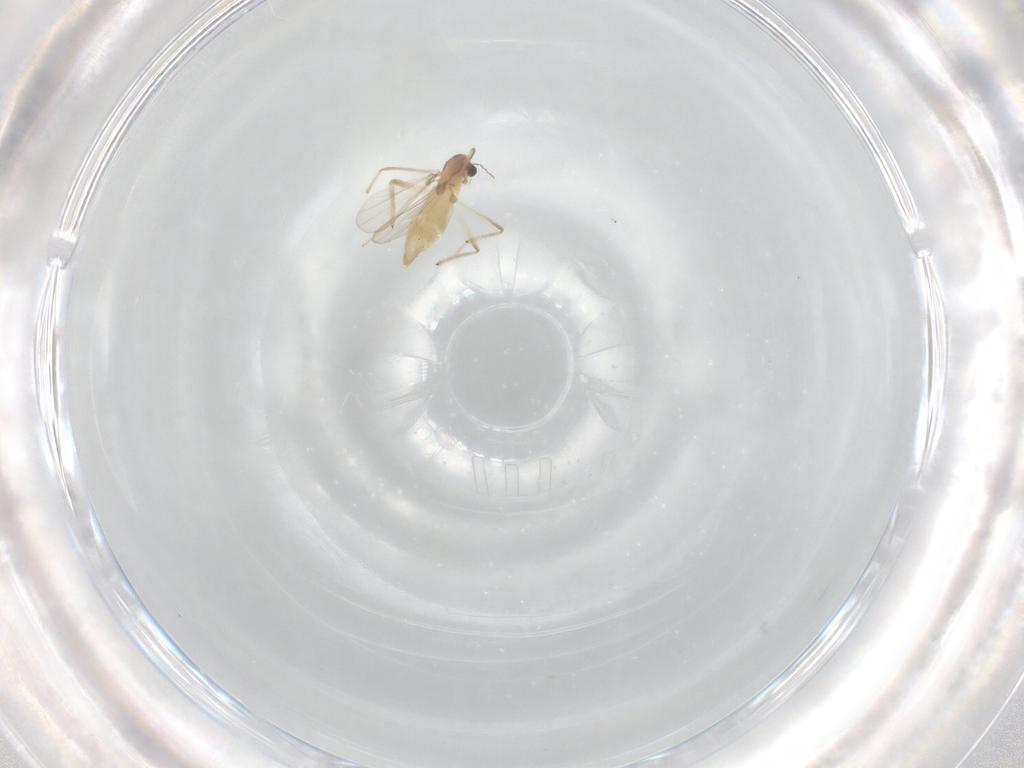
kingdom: Animalia
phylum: Arthropoda
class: Insecta
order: Diptera
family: Chironomidae
